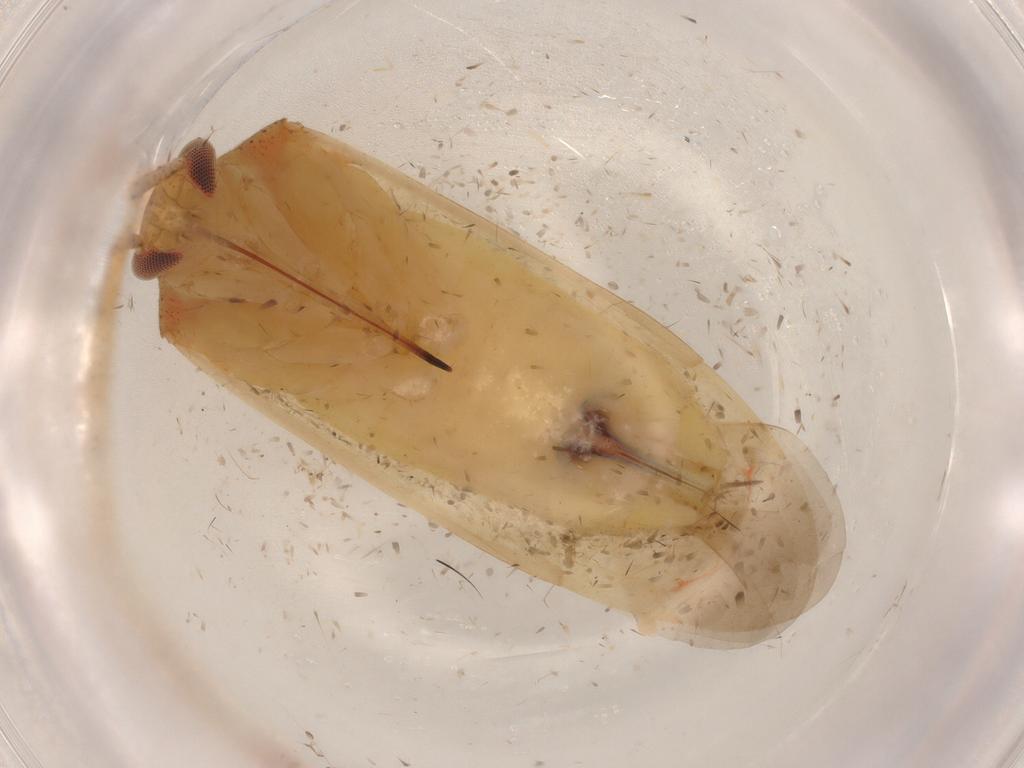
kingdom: Animalia
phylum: Arthropoda
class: Insecta
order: Hemiptera
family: Miridae
